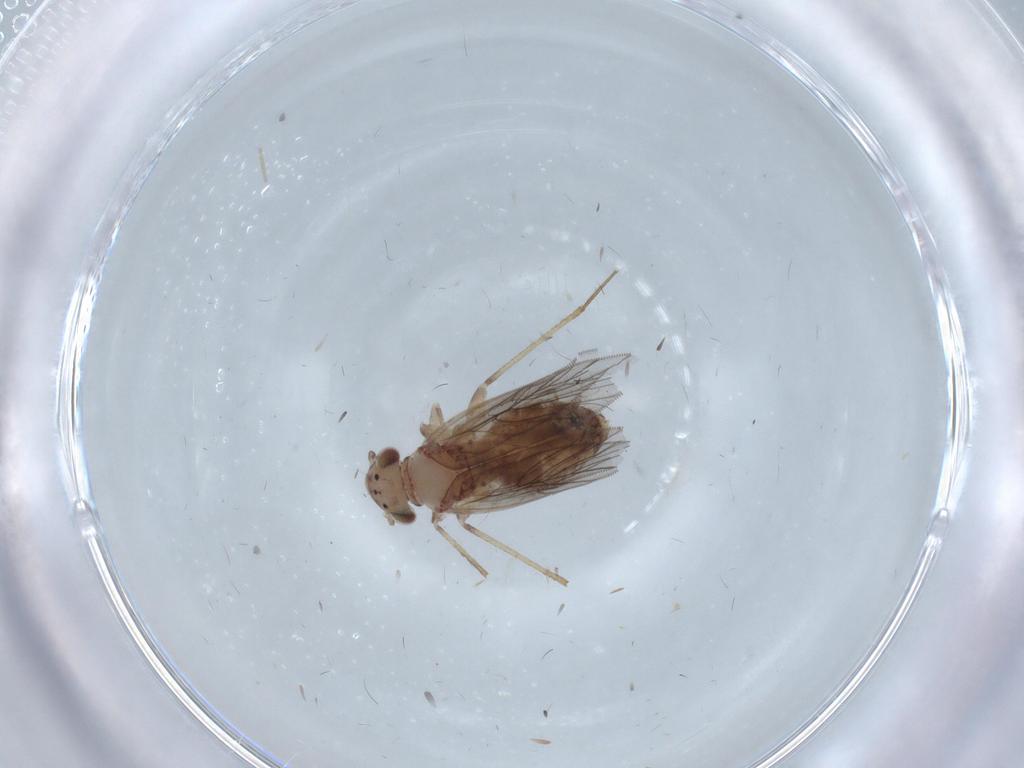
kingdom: Animalia
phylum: Arthropoda
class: Insecta
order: Psocodea
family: Lepidopsocidae
